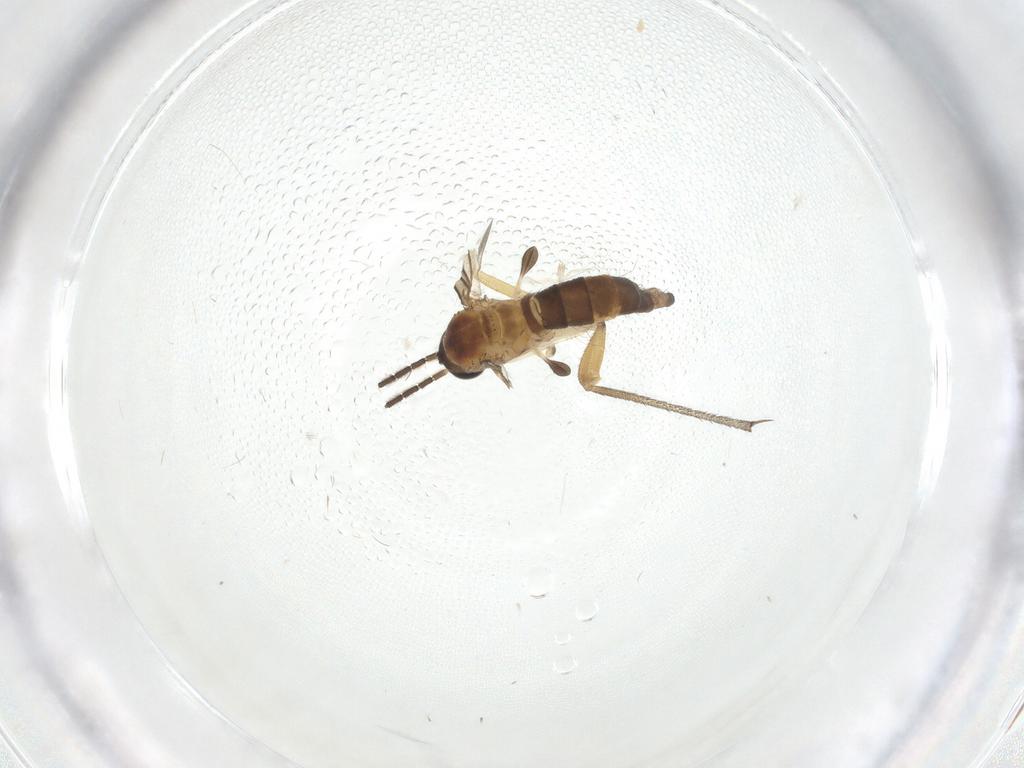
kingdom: Animalia
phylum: Arthropoda
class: Insecta
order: Diptera
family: Sciaridae
